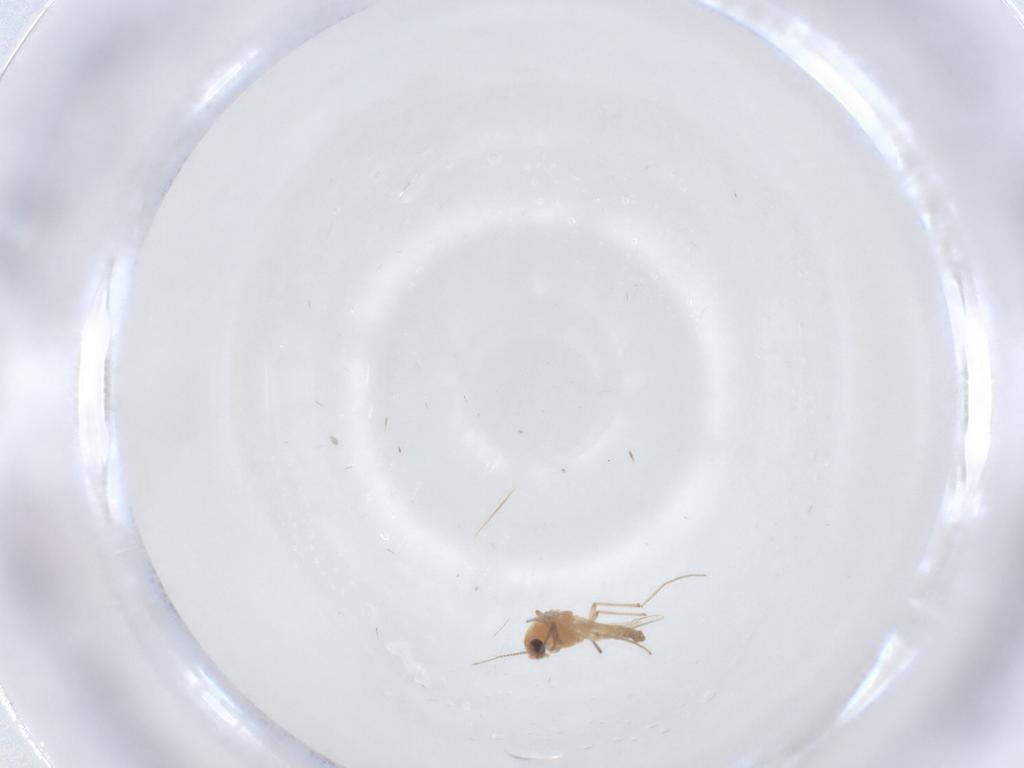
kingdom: Animalia
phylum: Arthropoda
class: Insecta
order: Diptera
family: Chironomidae
